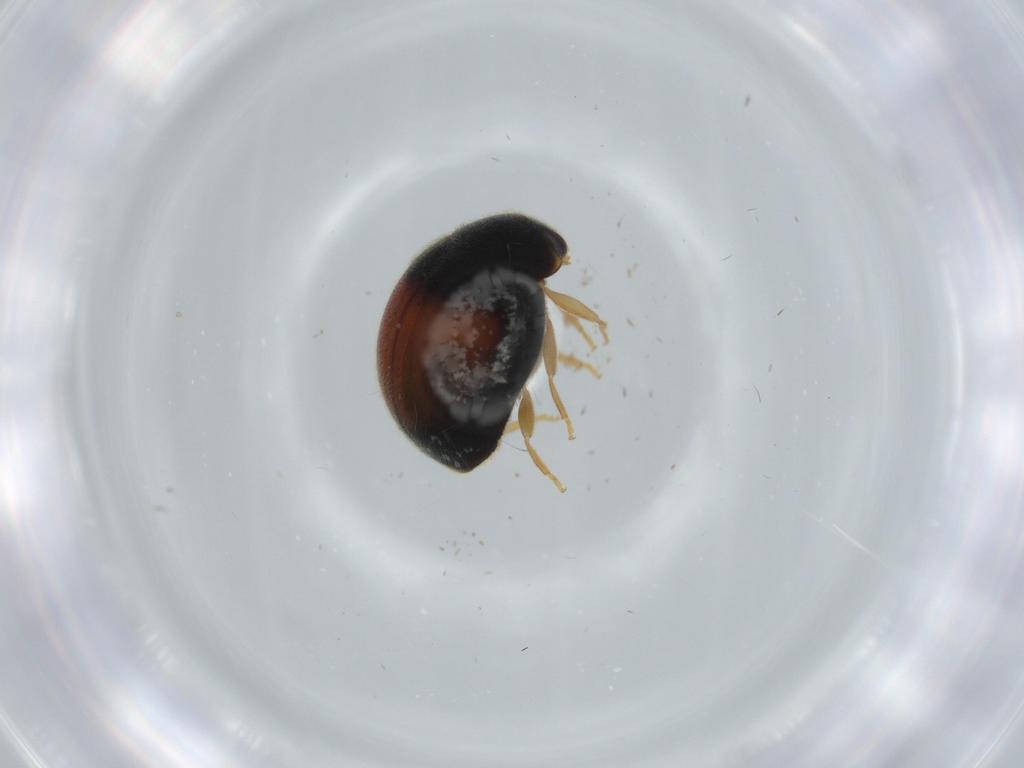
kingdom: Animalia
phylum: Arthropoda
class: Insecta
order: Coleoptera
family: Coccinellidae
